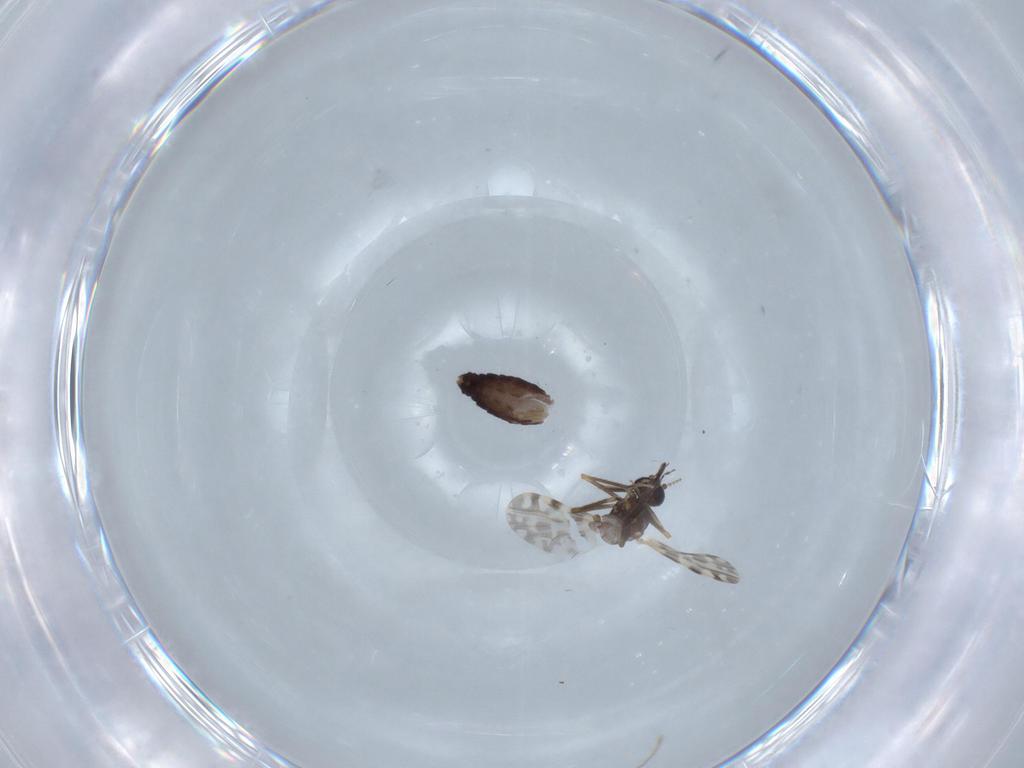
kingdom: Animalia
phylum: Arthropoda
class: Insecta
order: Diptera
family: Ceratopogonidae
